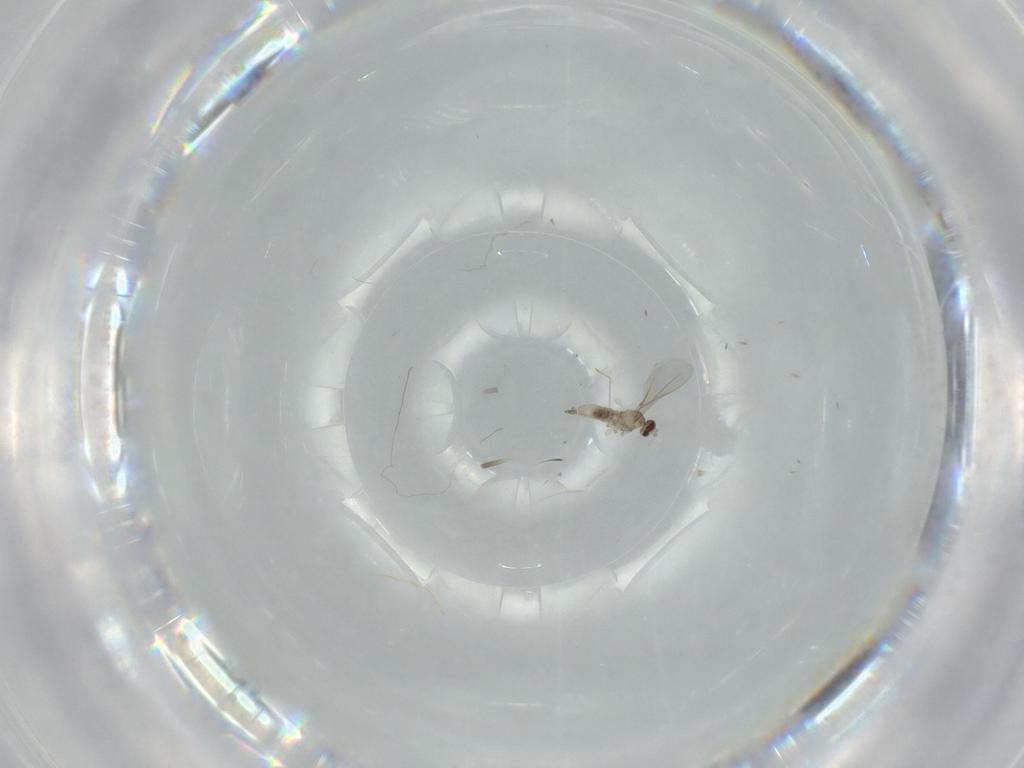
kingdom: Animalia
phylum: Arthropoda
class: Insecta
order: Diptera
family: Cecidomyiidae
